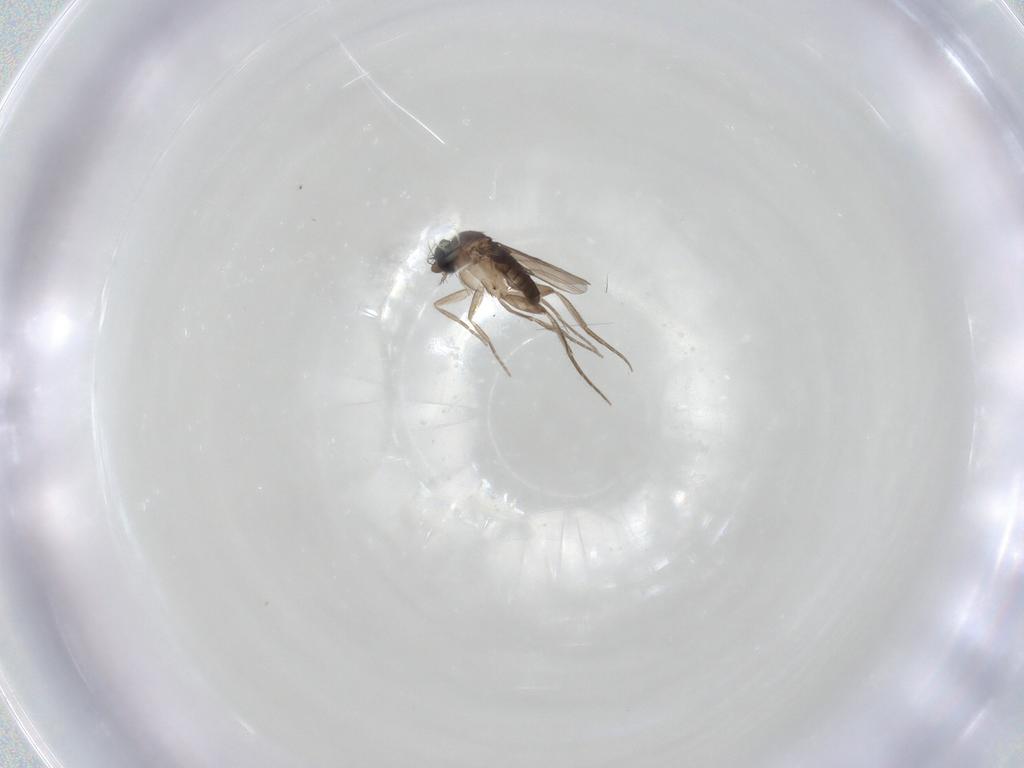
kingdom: Animalia
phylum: Arthropoda
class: Insecta
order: Diptera
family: Phoridae
